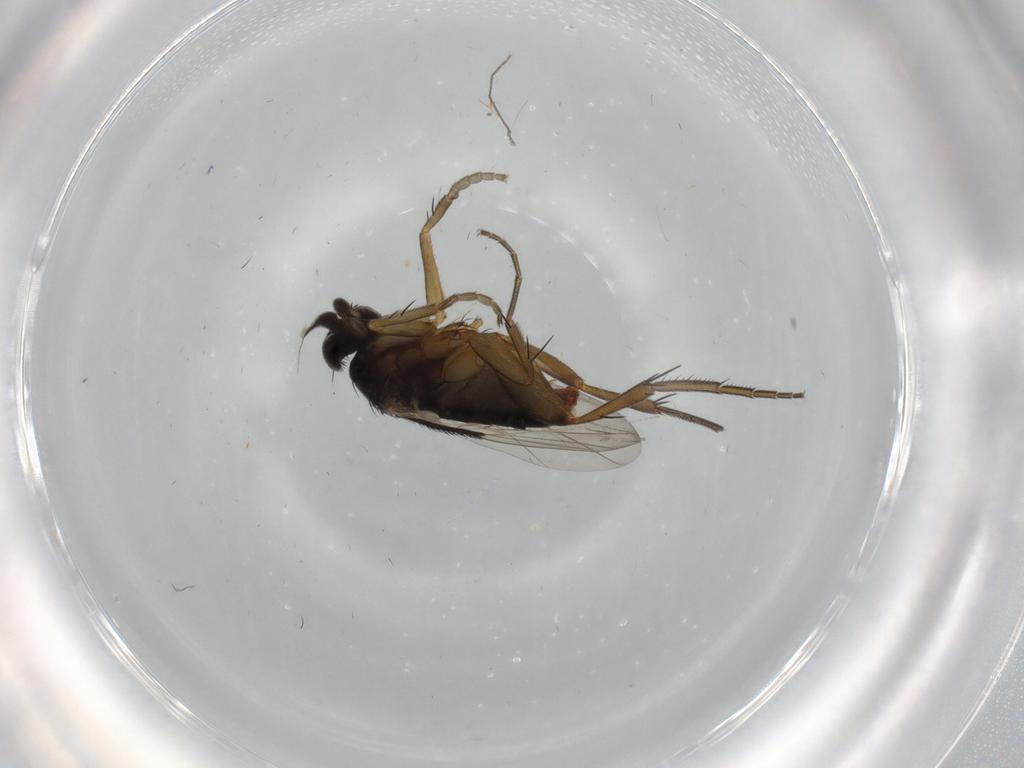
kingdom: Animalia
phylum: Arthropoda
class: Insecta
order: Diptera
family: Phoridae
